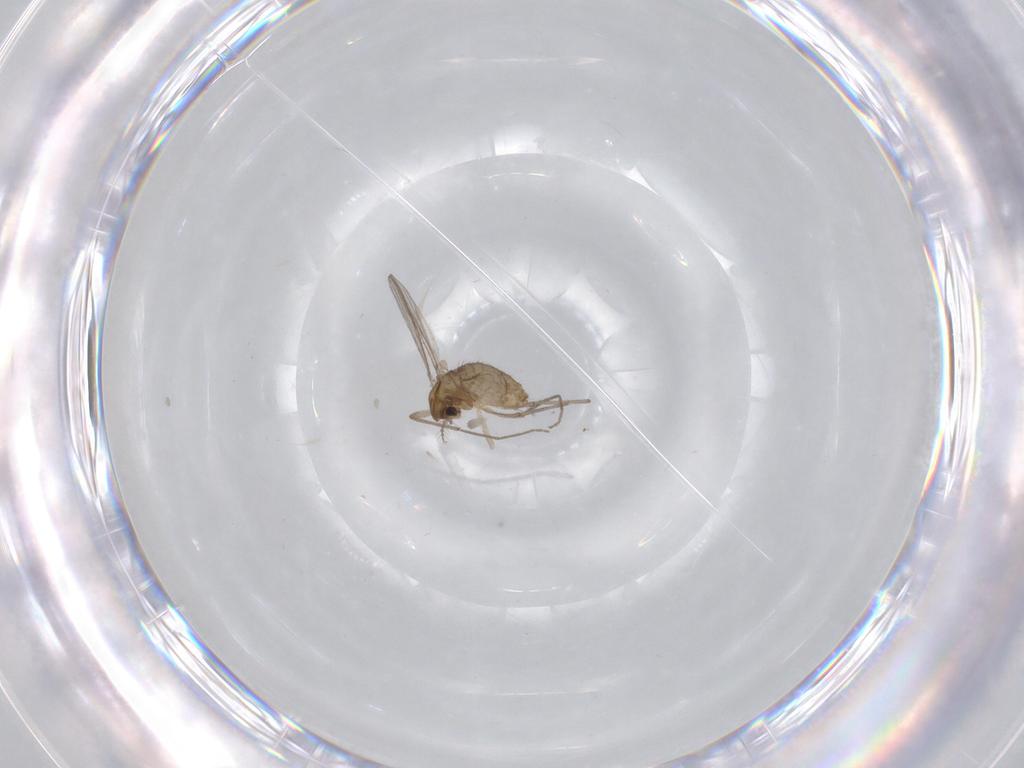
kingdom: Animalia
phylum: Arthropoda
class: Insecta
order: Diptera
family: Chironomidae
